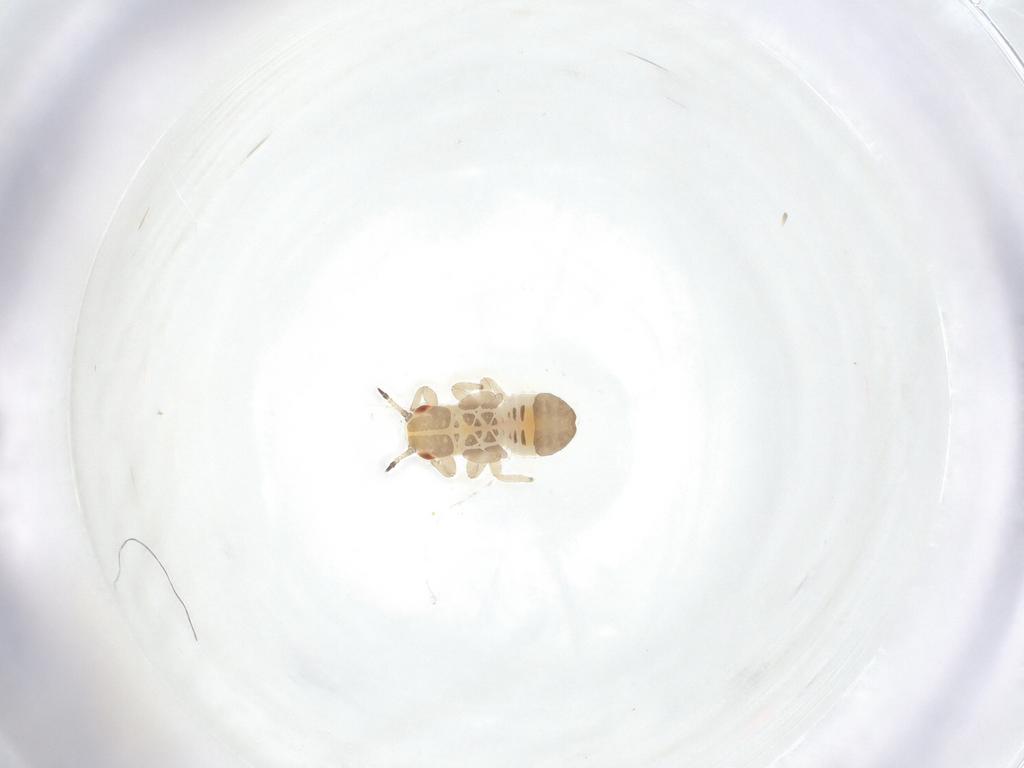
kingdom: Animalia
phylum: Arthropoda
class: Insecta
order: Hemiptera
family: Aphalaridae
